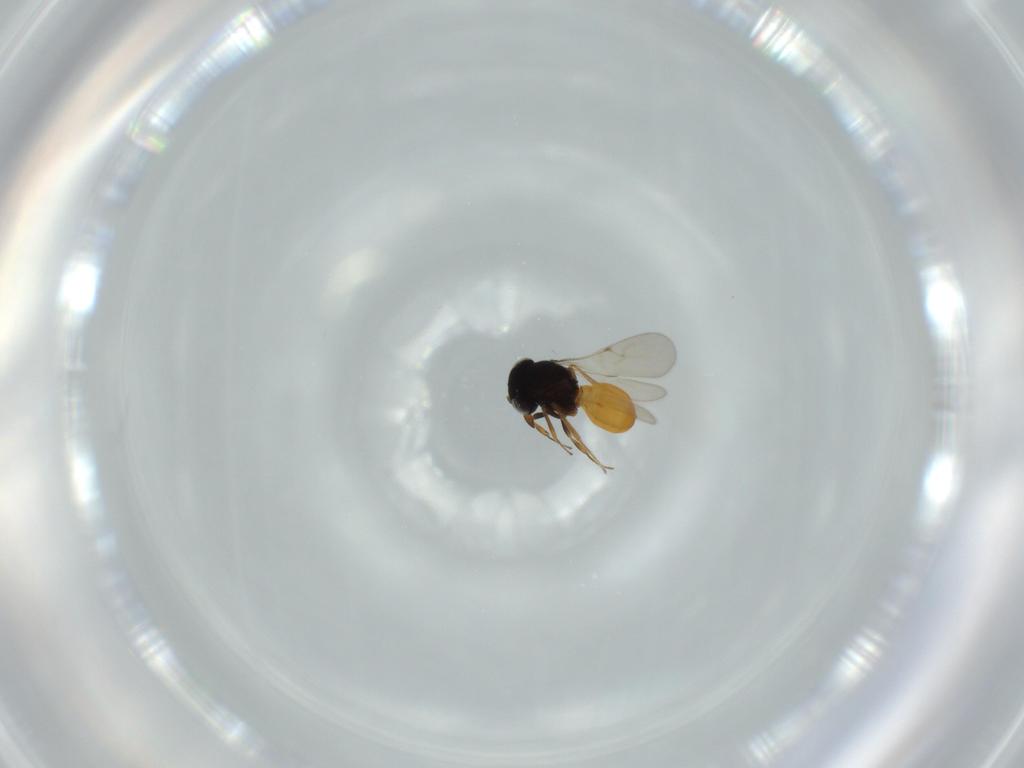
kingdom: Animalia
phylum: Arthropoda
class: Insecta
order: Hymenoptera
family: Scelionidae
